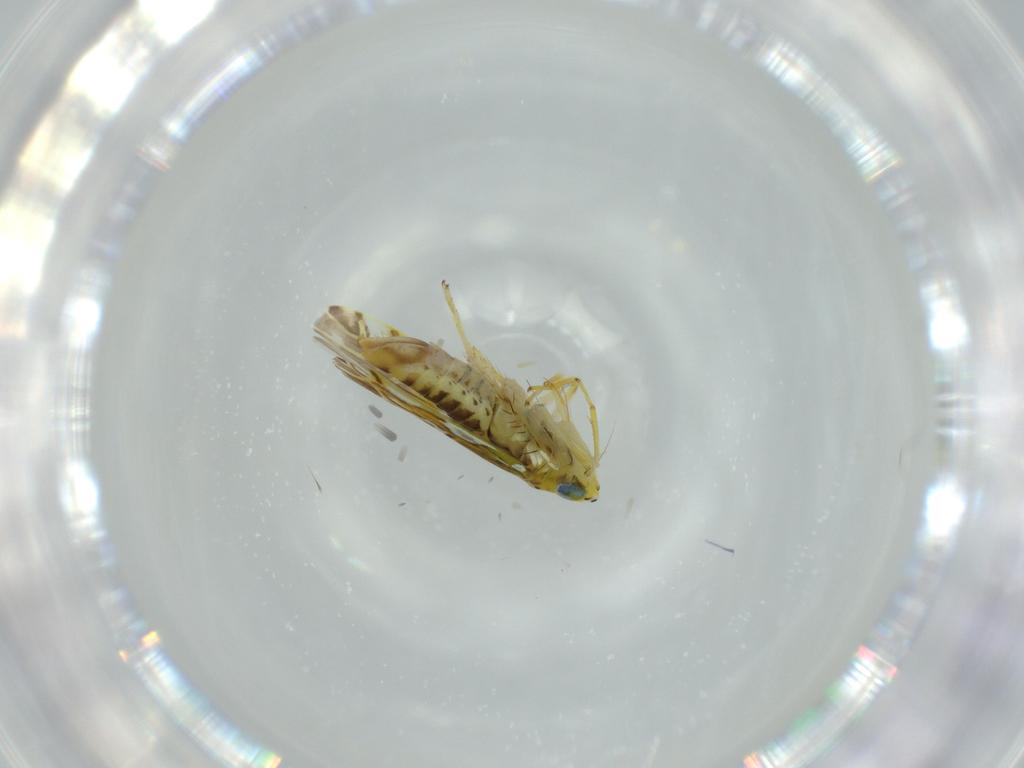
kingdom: Animalia
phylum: Arthropoda
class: Insecta
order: Hemiptera
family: Cicadellidae
